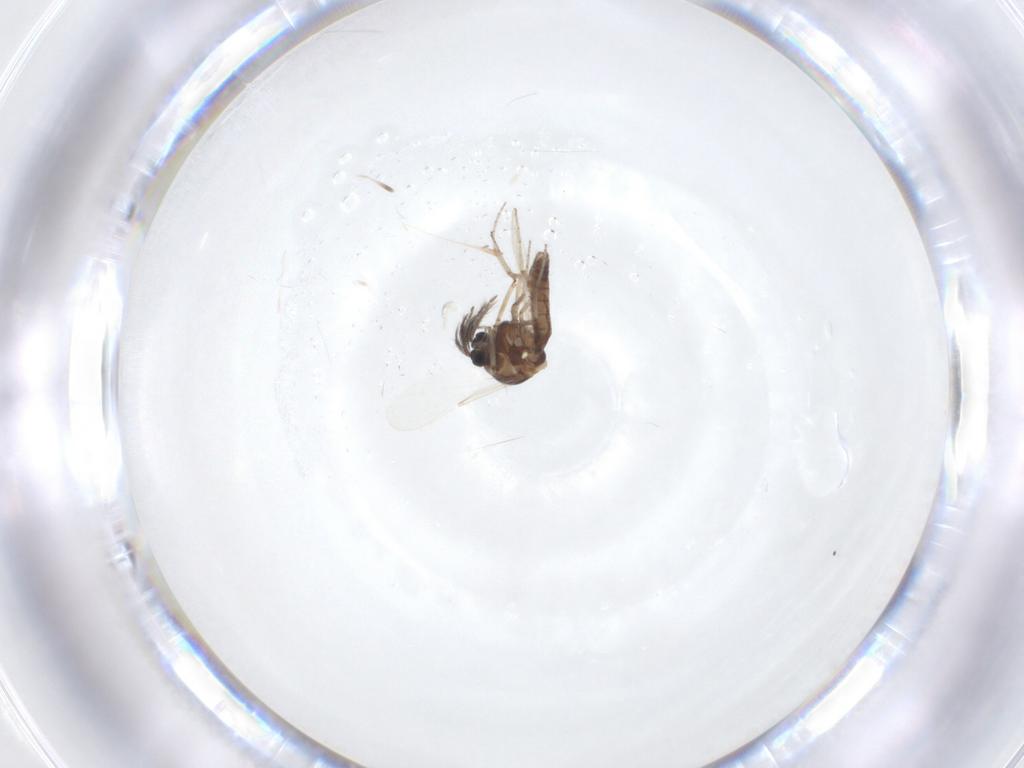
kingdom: Animalia
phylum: Arthropoda
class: Insecta
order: Diptera
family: Ceratopogonidae
